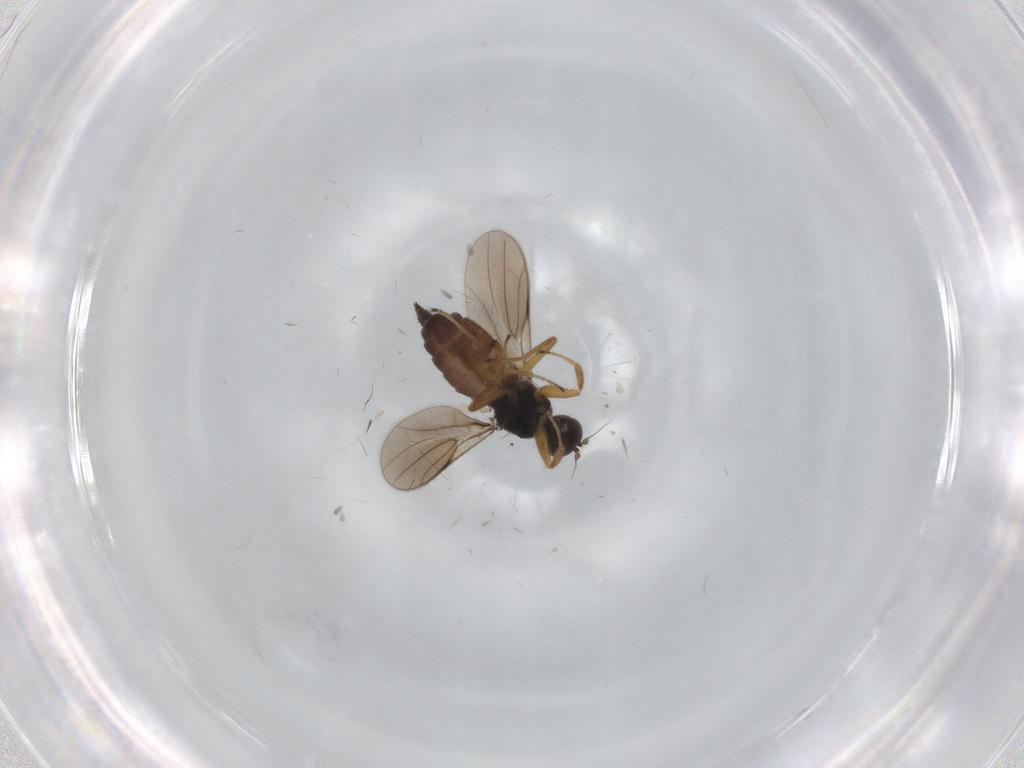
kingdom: Animalia
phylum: Arthropoda
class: Insecta
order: Diptera
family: Hybotidae
